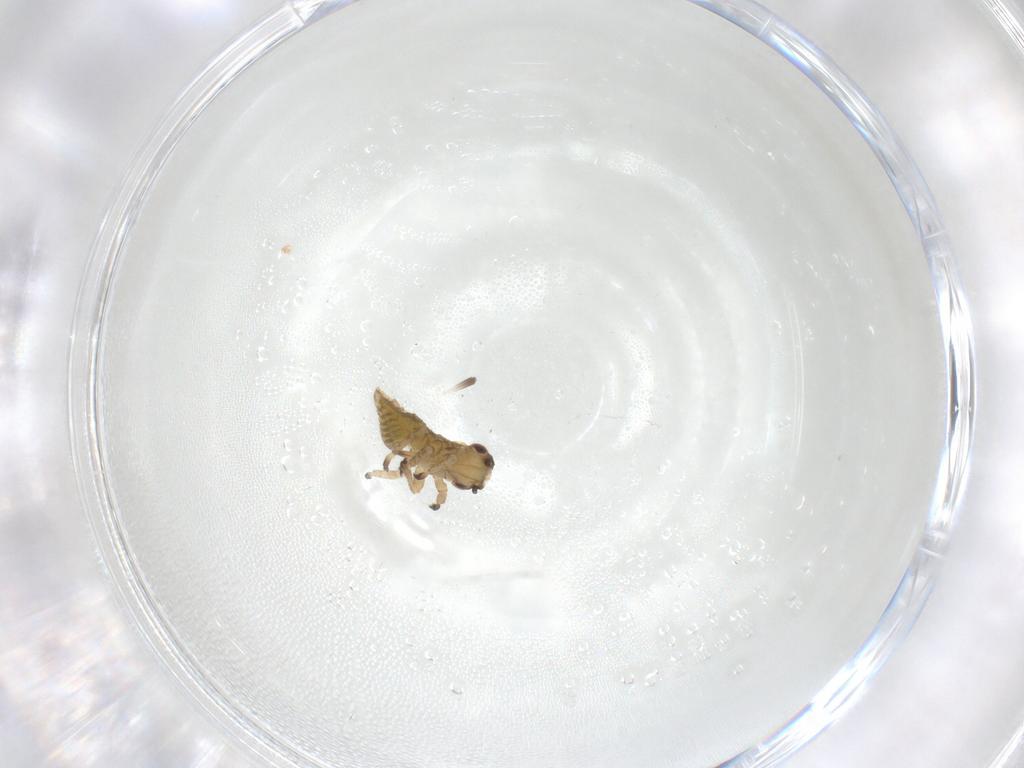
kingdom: Animalia
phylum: Arthropoda
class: Insecta
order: Hemiptera
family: Cicadellidae
